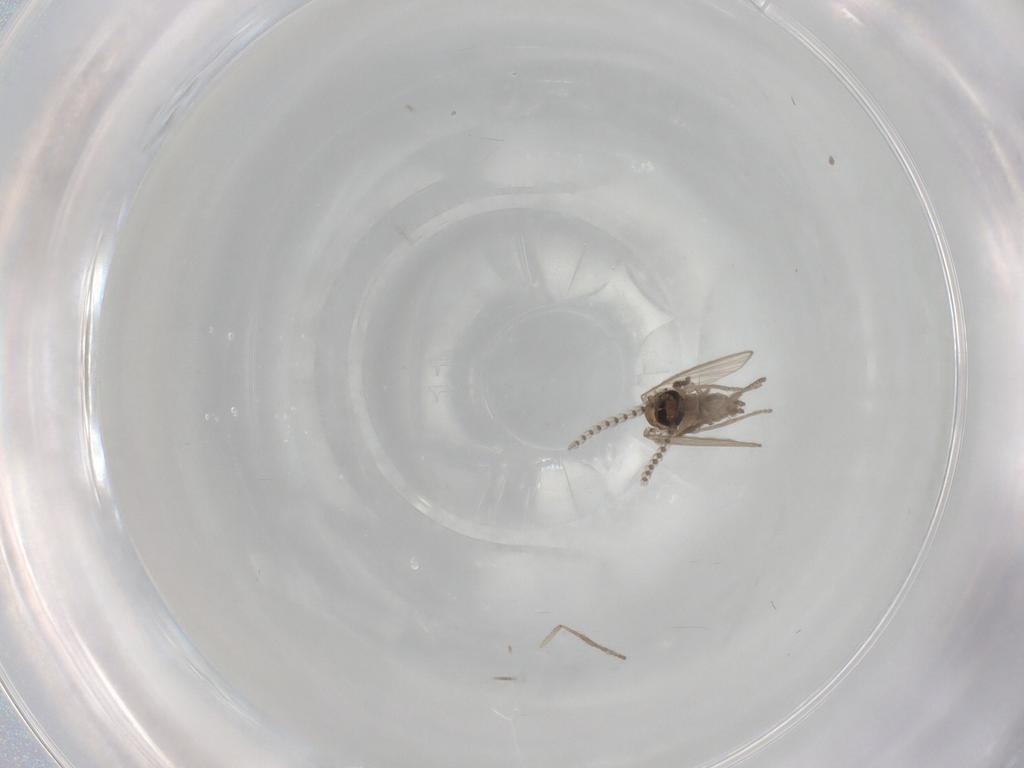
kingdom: Animalia
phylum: Arthropoda
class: Insecta
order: Diptera
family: Psychodidae
